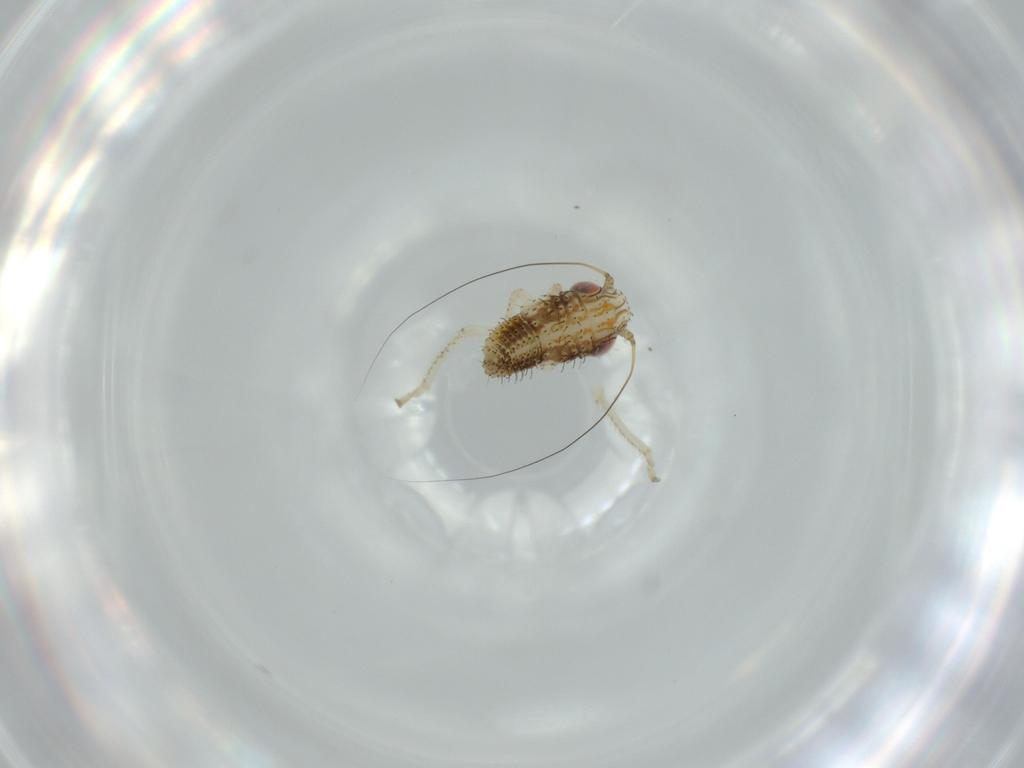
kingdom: Animalia
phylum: Arthropoda
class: Insecta
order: Hemiptera
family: Cicadellidae
